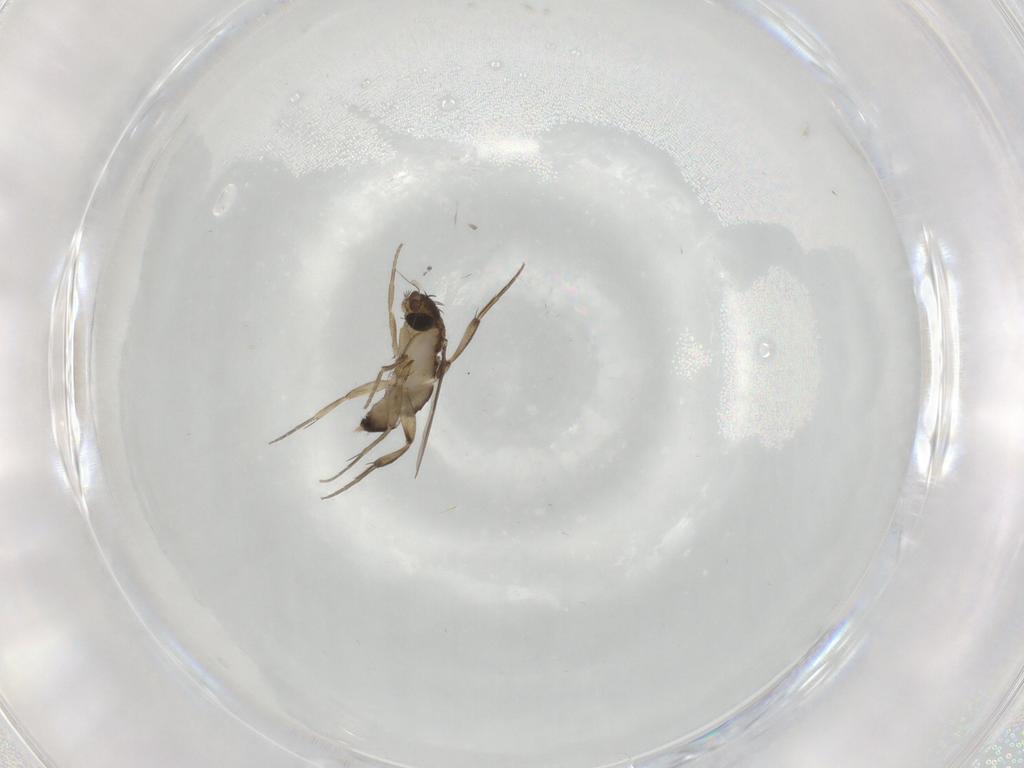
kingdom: Animalia
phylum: Arthropoda
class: Insecta
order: Diptera
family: Phoridae
